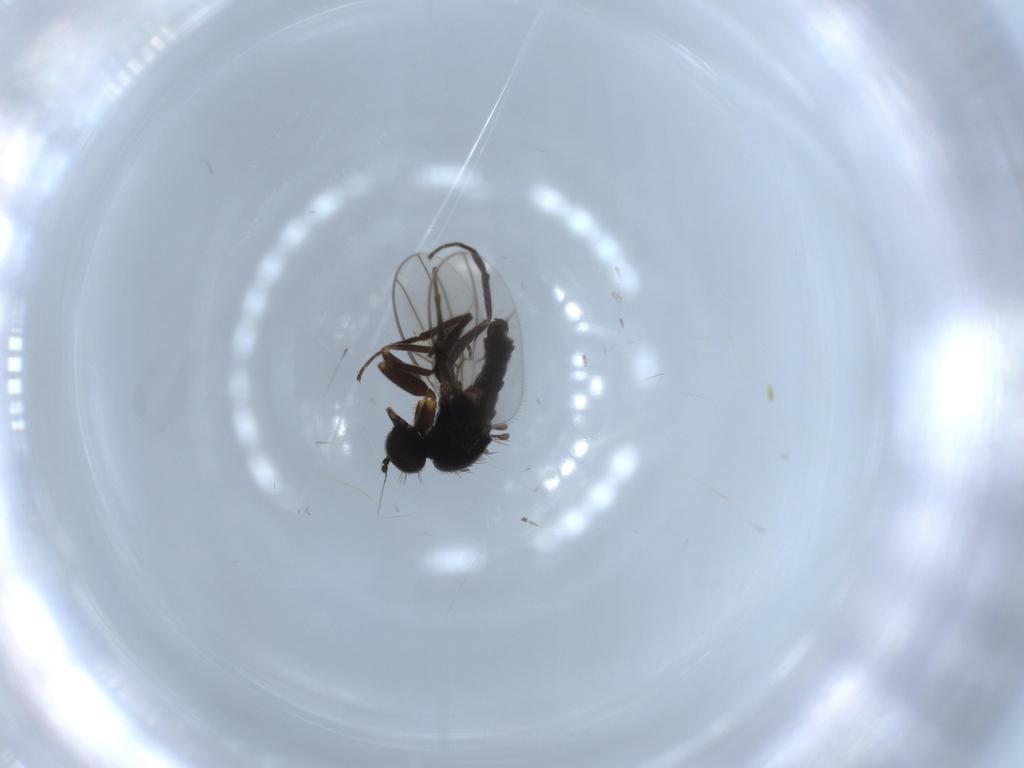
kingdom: Animalia
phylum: Arthropoda
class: Insecta
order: Diptera
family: Hybotidae
